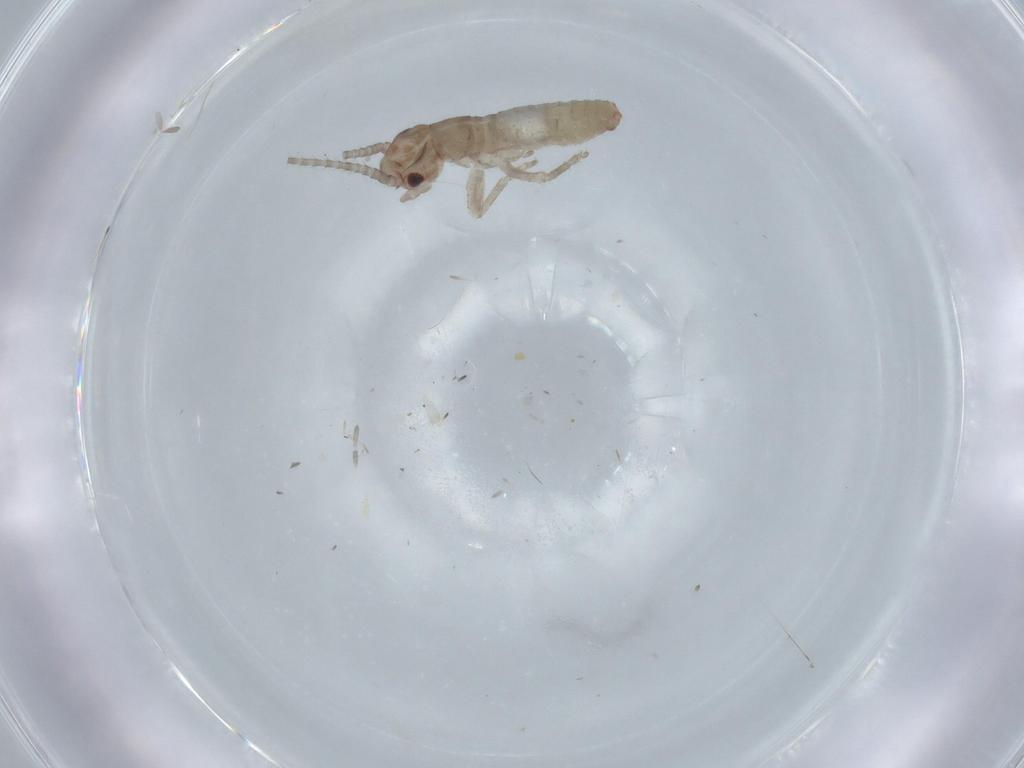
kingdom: Animalia
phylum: Arthropoda
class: Insecta
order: Orthoptera
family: Mogoplistidae
